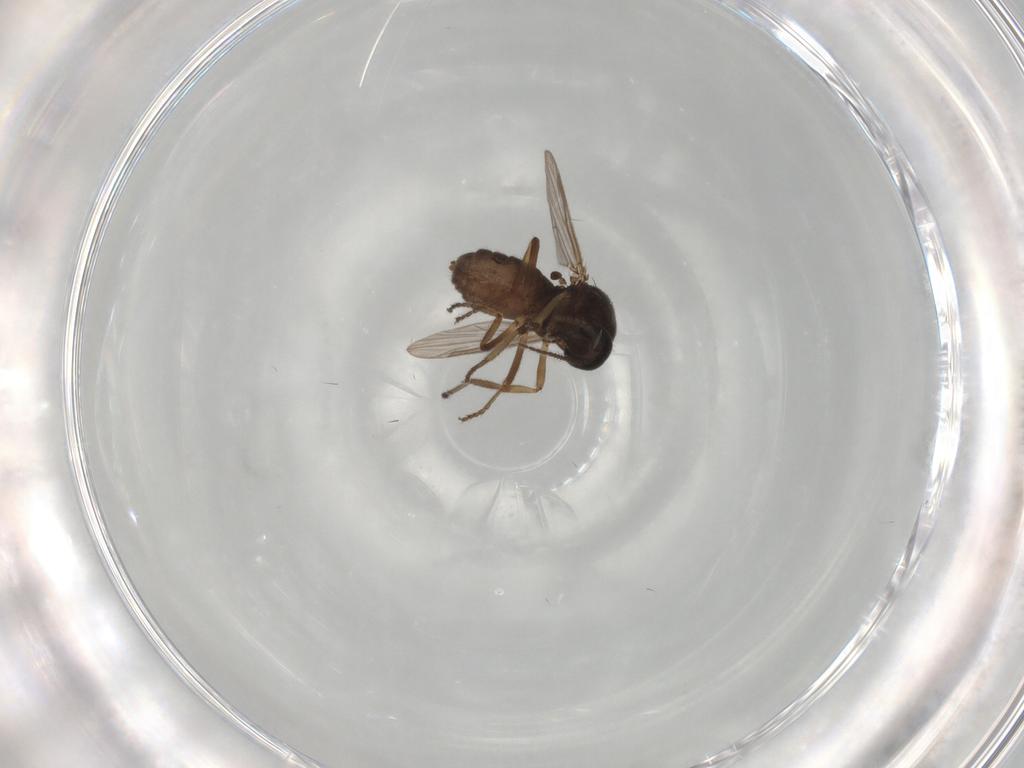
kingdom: Animalia
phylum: Arthropoda
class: Insecta
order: Diptera
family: Ceratopogonidae
